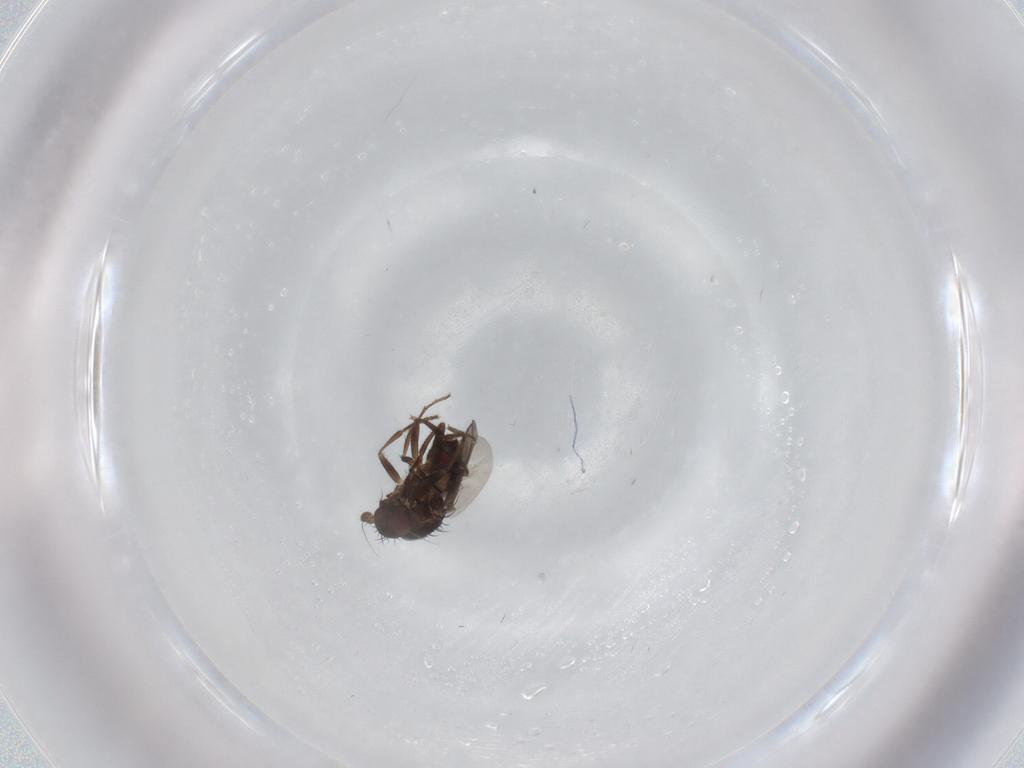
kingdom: Animalia
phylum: Arthropoda
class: Insecta
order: Diptera
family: Sphaeroceridae
